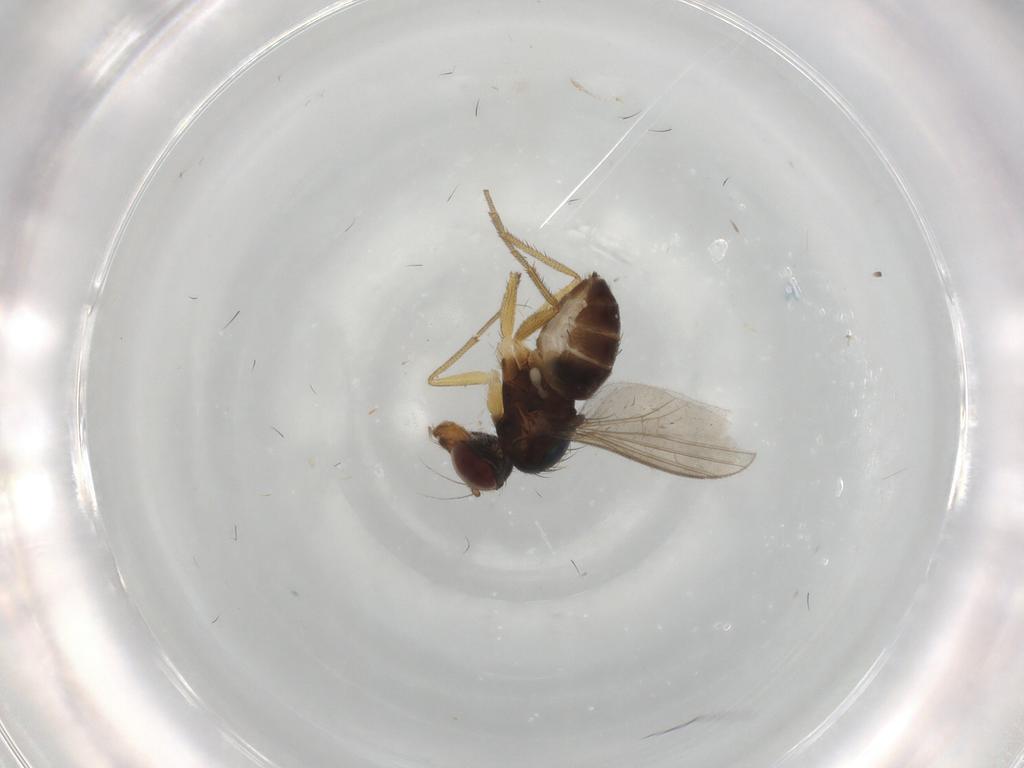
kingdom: Animalia
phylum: Arthropoda
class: Insecta
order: Diptera
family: Dolichopodidae
